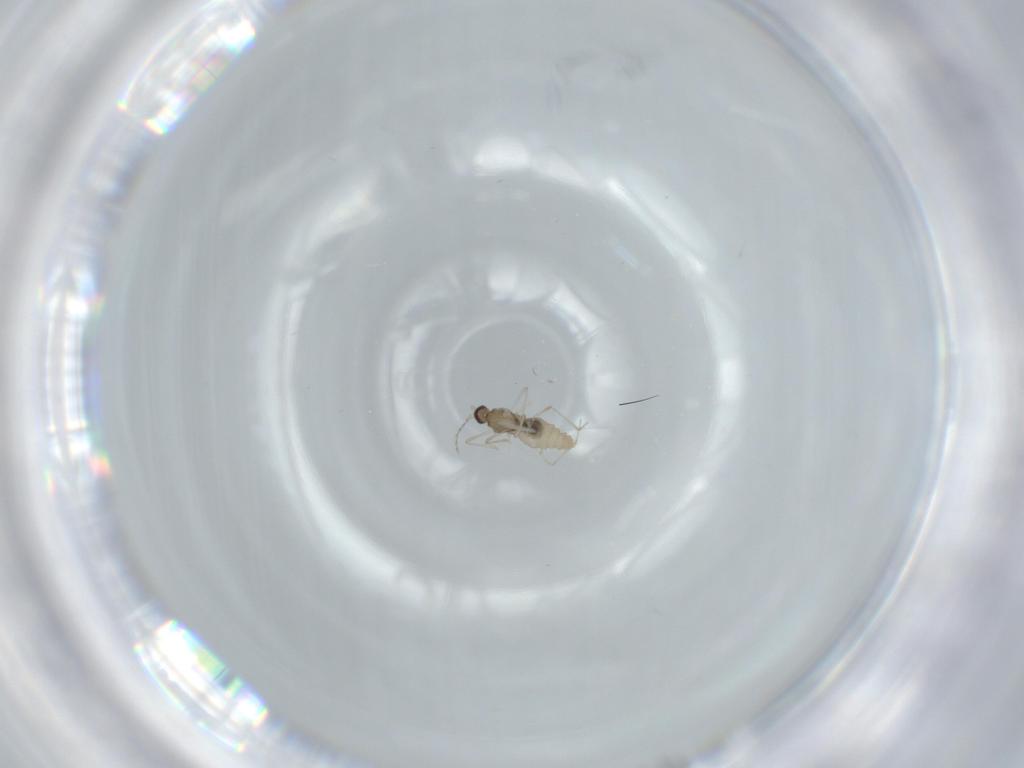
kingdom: Animalia
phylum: Arthropoda
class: Insecta
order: Diptera
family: Cecidomyiidae
